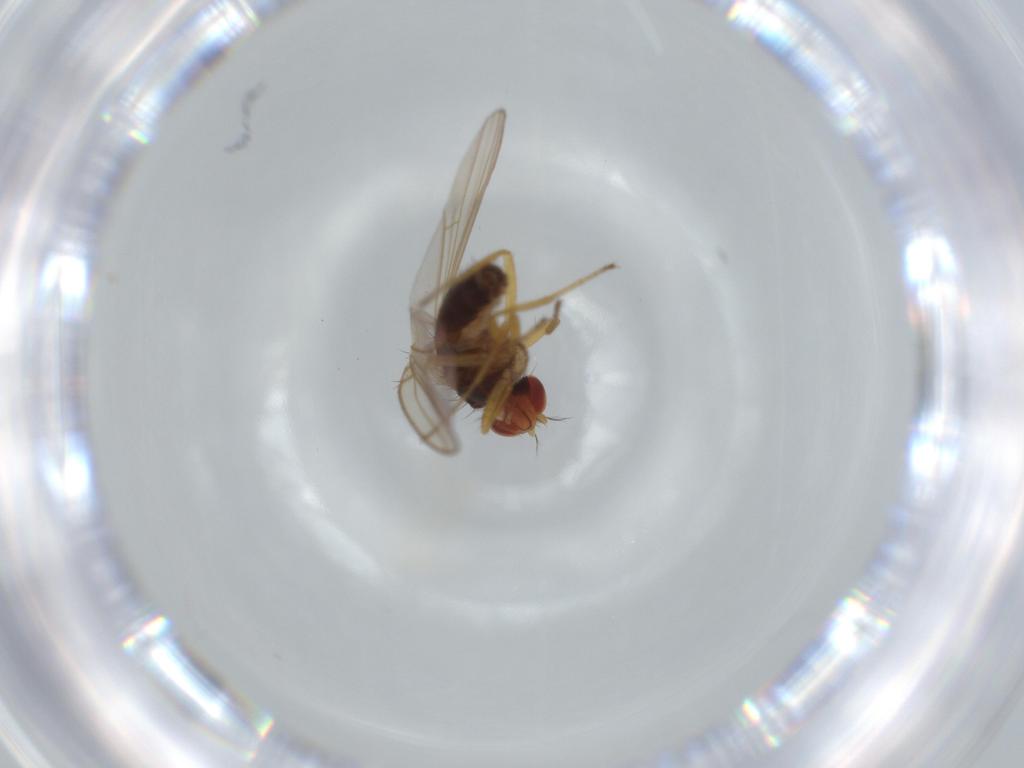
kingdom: Animalia
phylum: Arthropoda
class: Insecta
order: Diptera
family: Drosophilidae
